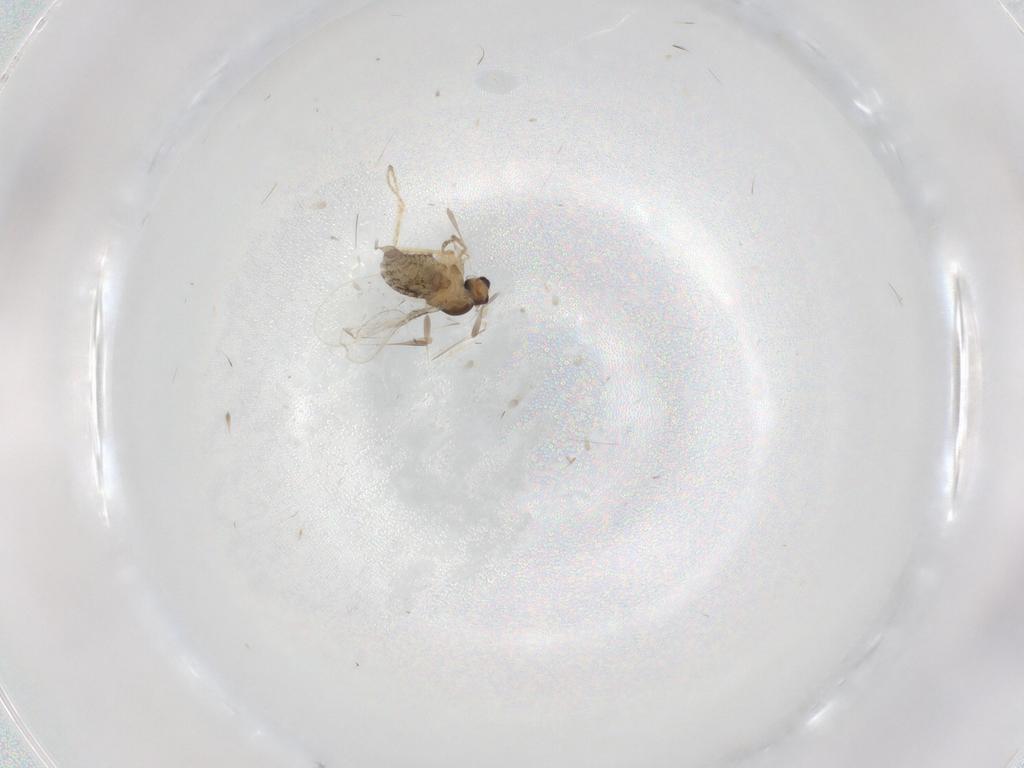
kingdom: Animalia
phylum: Arthropoda
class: Insecta
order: Diptera
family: Cecidomyiidae
